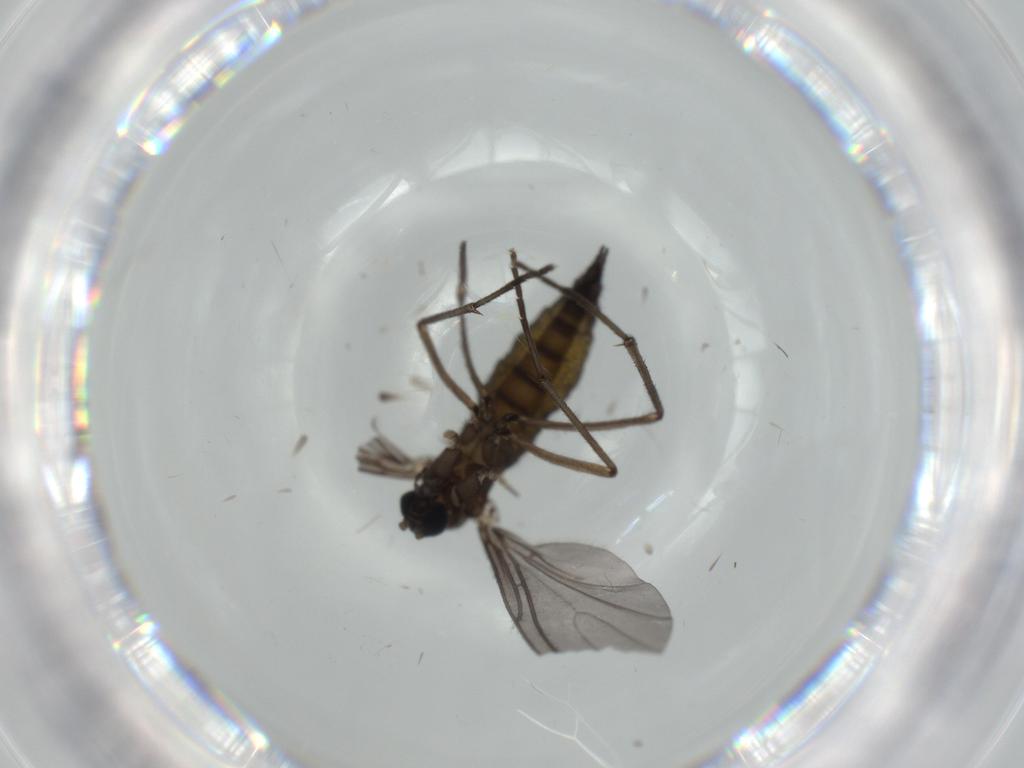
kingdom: Animalia
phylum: Arthropoda
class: Insecta
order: Diptera
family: Sciaridae
